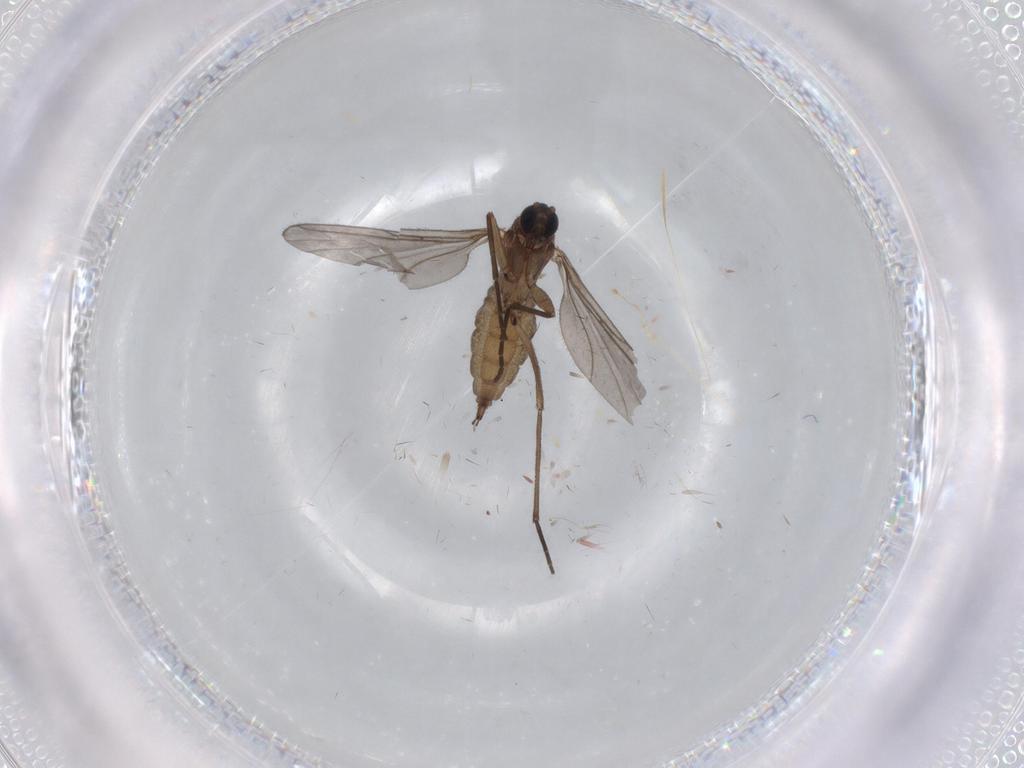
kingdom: Animalia
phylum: Arthropoda
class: Insecta
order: Diptera
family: Sciaridae
